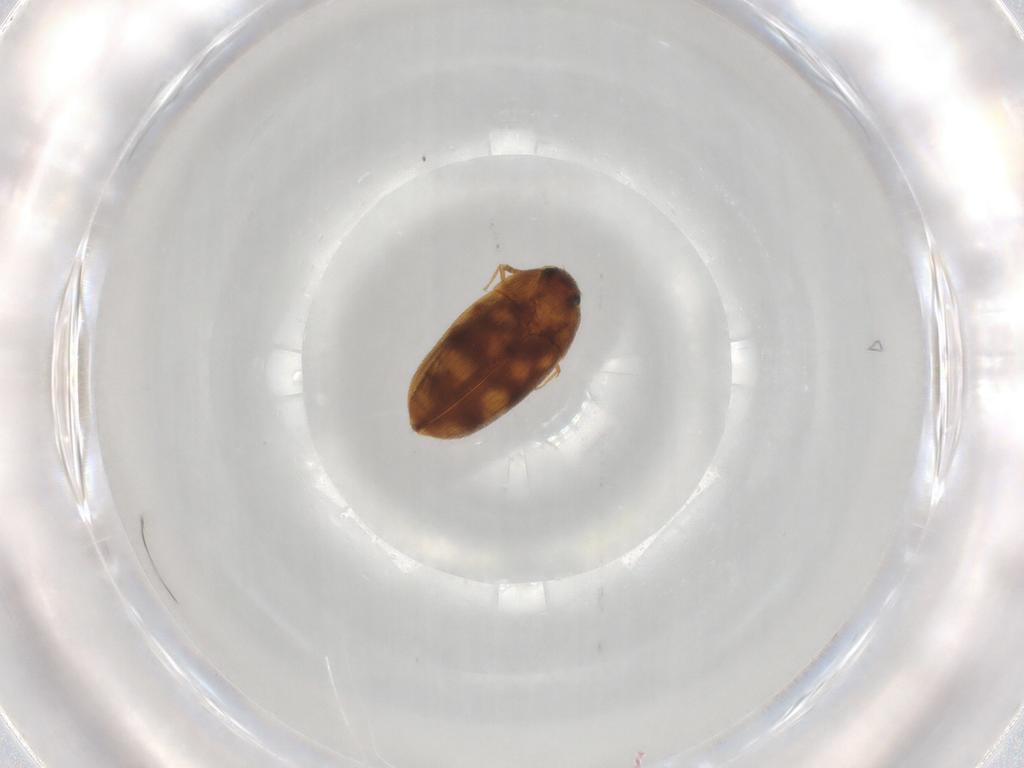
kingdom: Animalia
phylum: Arthropoda
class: Insecta
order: Coleoptera
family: Mycetophagidae
